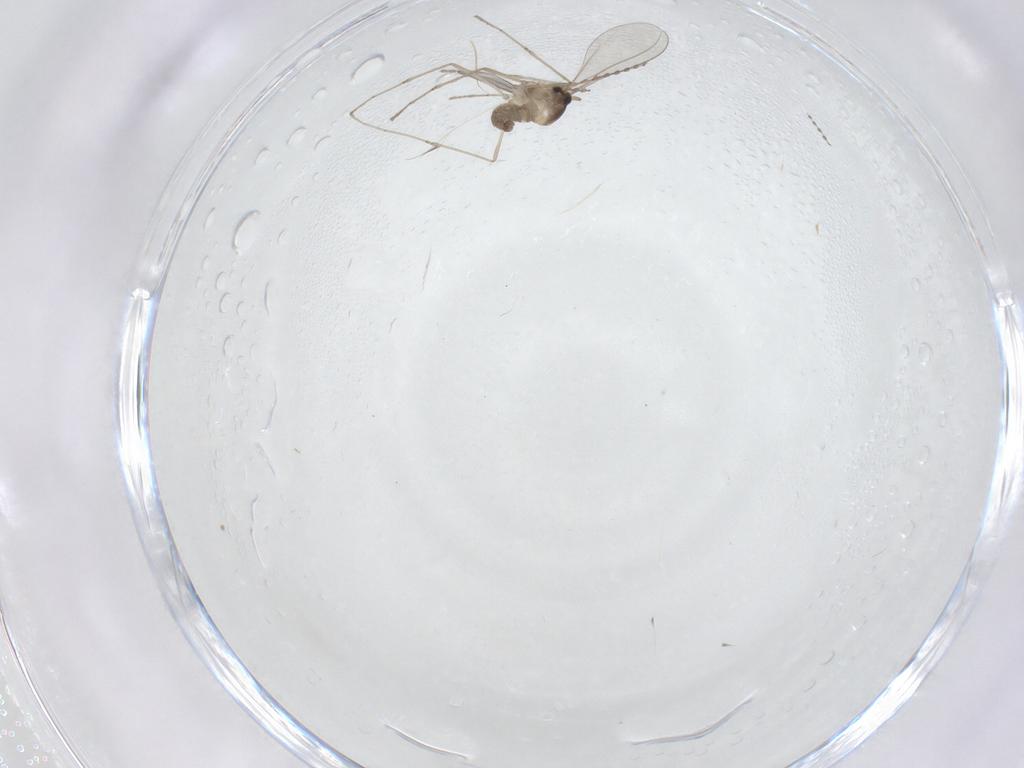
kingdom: Animalia
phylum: Arthropoda
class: Insecta
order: Diptera
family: Cecidomyiidae
